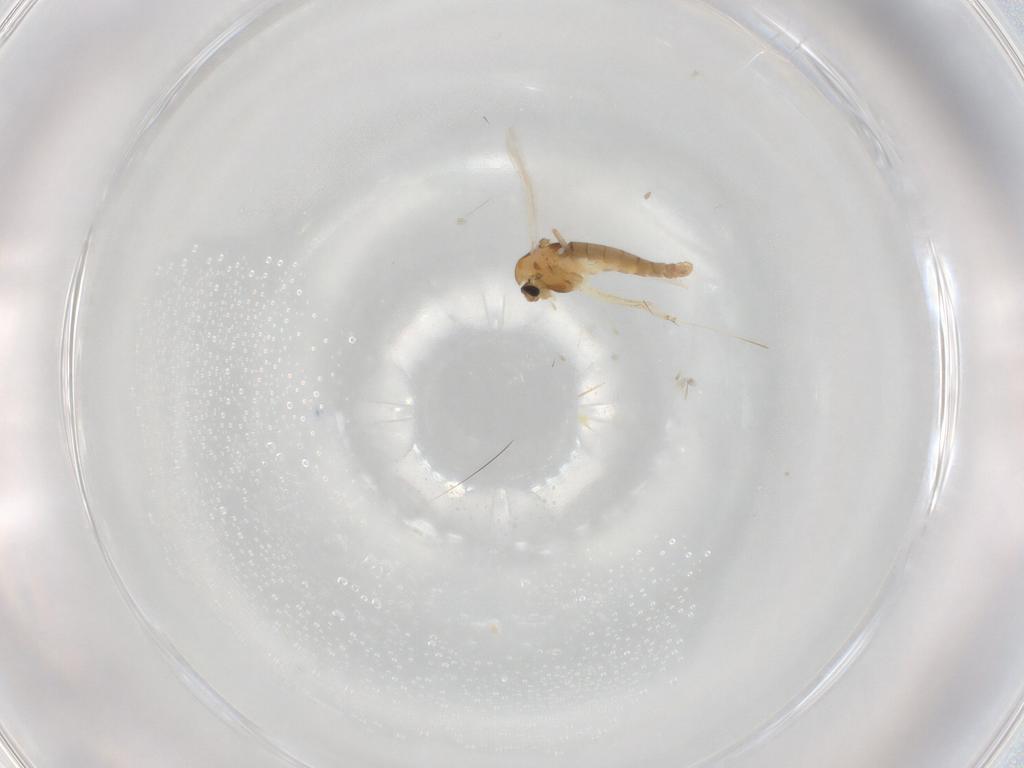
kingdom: Animalia
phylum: Arthropoda
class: Insecta
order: Diptera
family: Chironomidae
